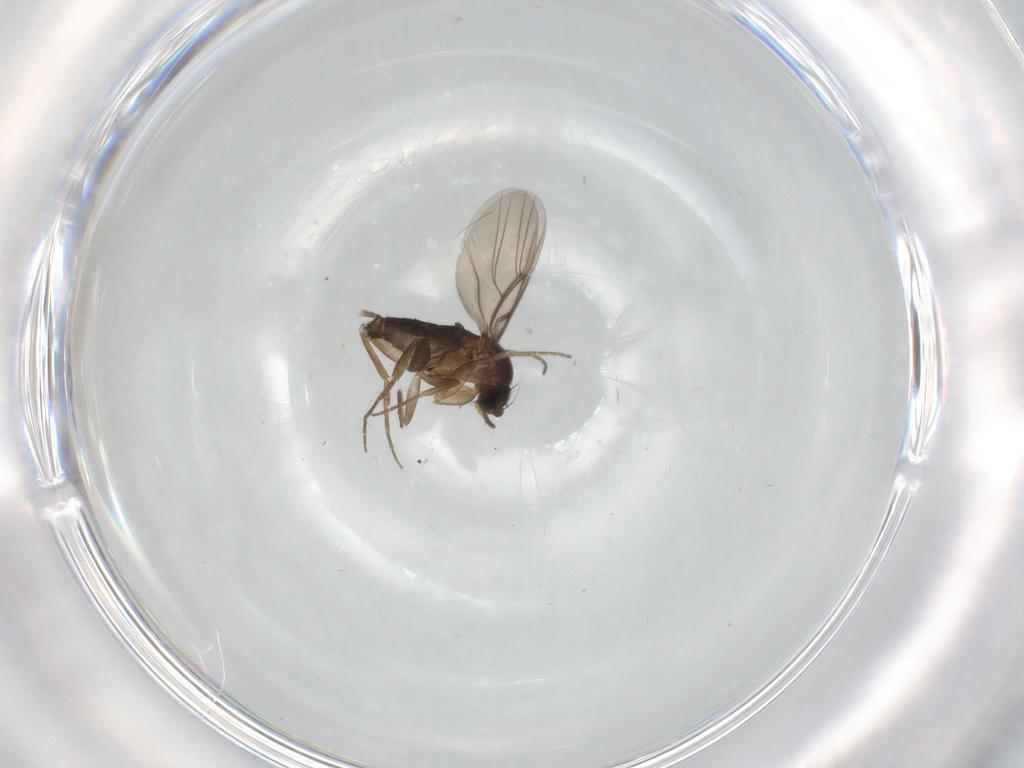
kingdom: Animalia
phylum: Arthropoda
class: Insecta
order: Diptera
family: Phoridae
